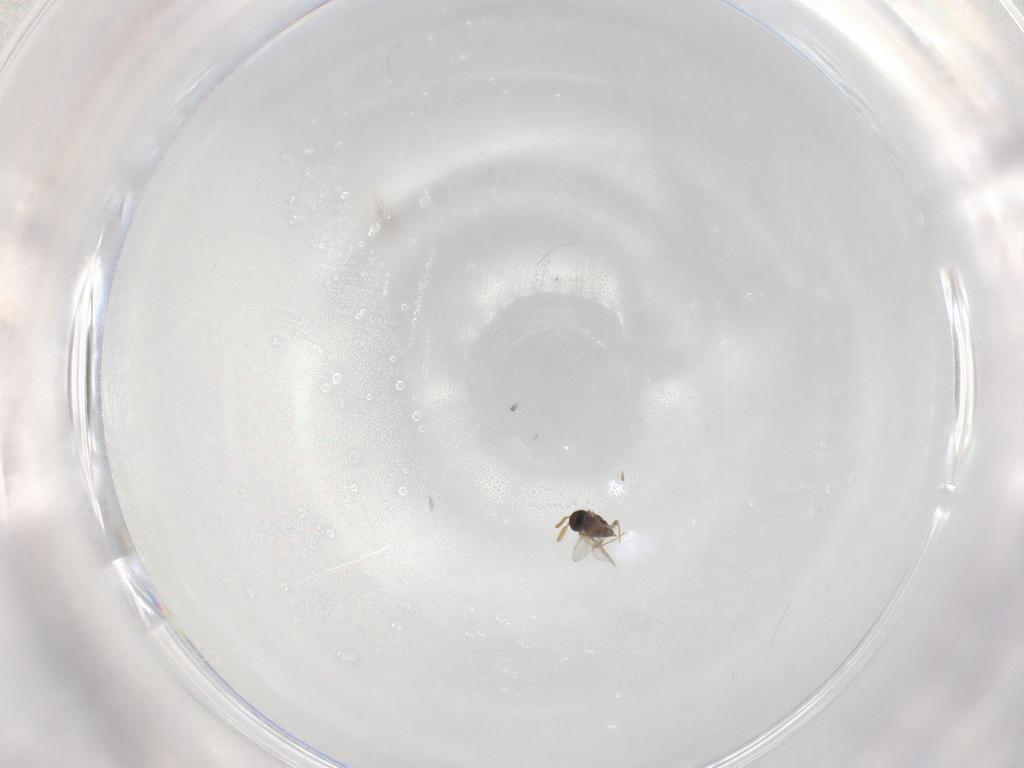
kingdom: Animalia
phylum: Arthropoda
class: Insecta
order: Hymenoptera
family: Encyrtidae
